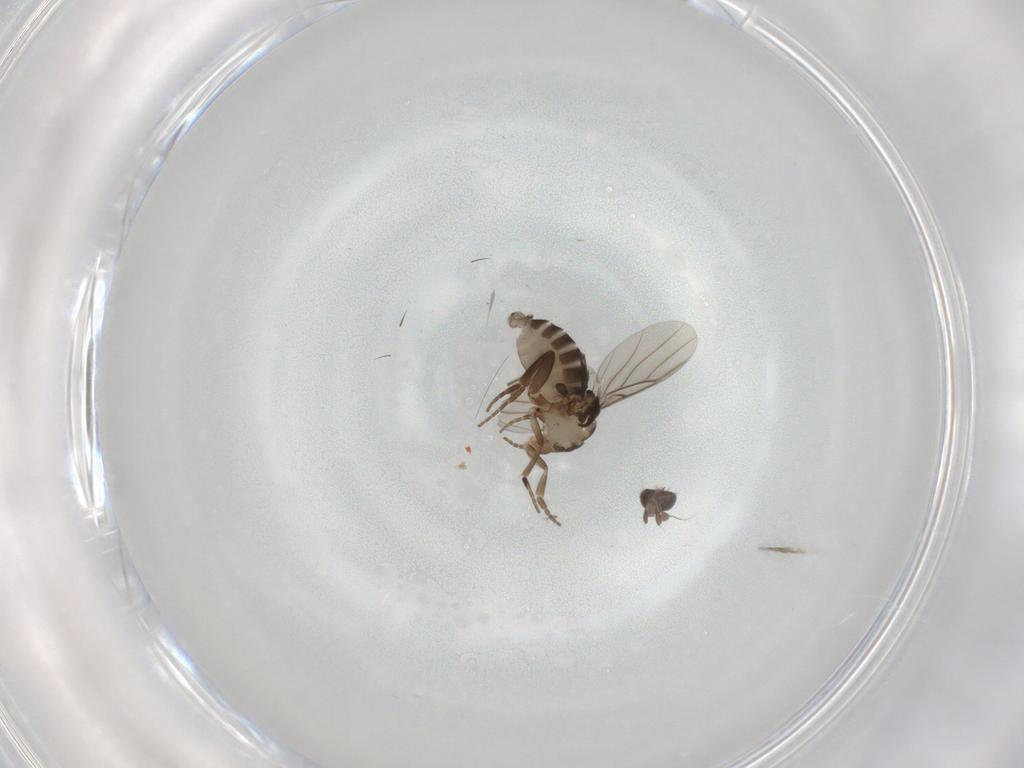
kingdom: Animalia
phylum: Arthropoda
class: Insecta
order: Diptera
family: Phoridae
